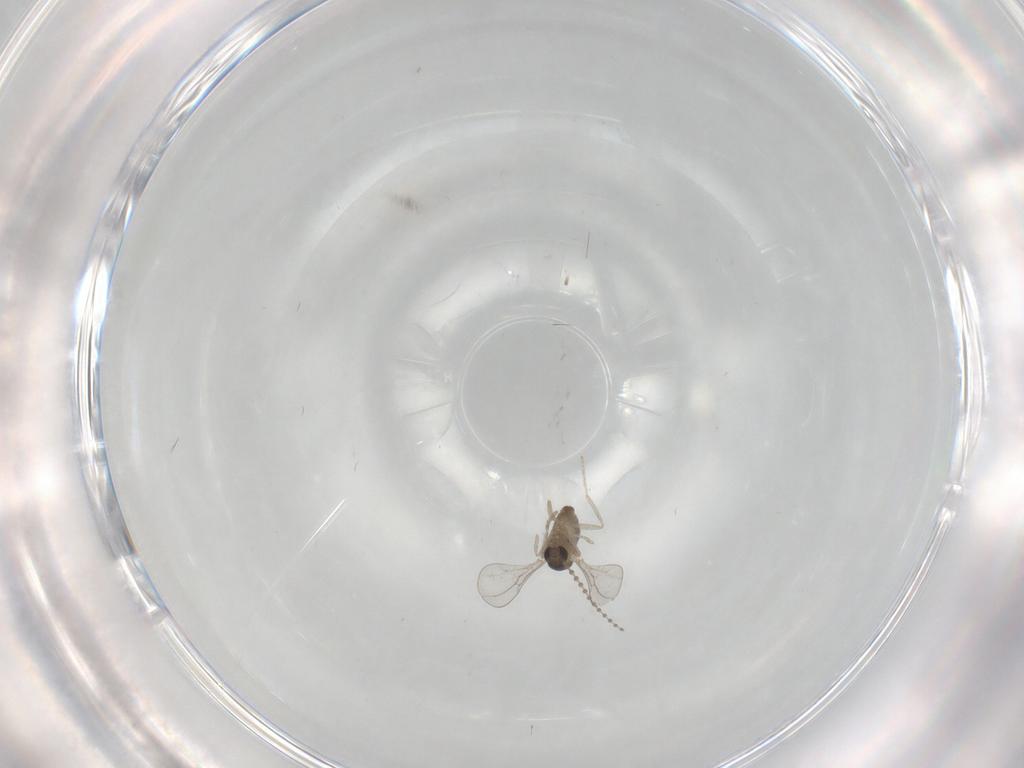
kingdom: Animalia
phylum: Arthropoda
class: Insecta
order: Diptera
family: Cecidomyiidae
